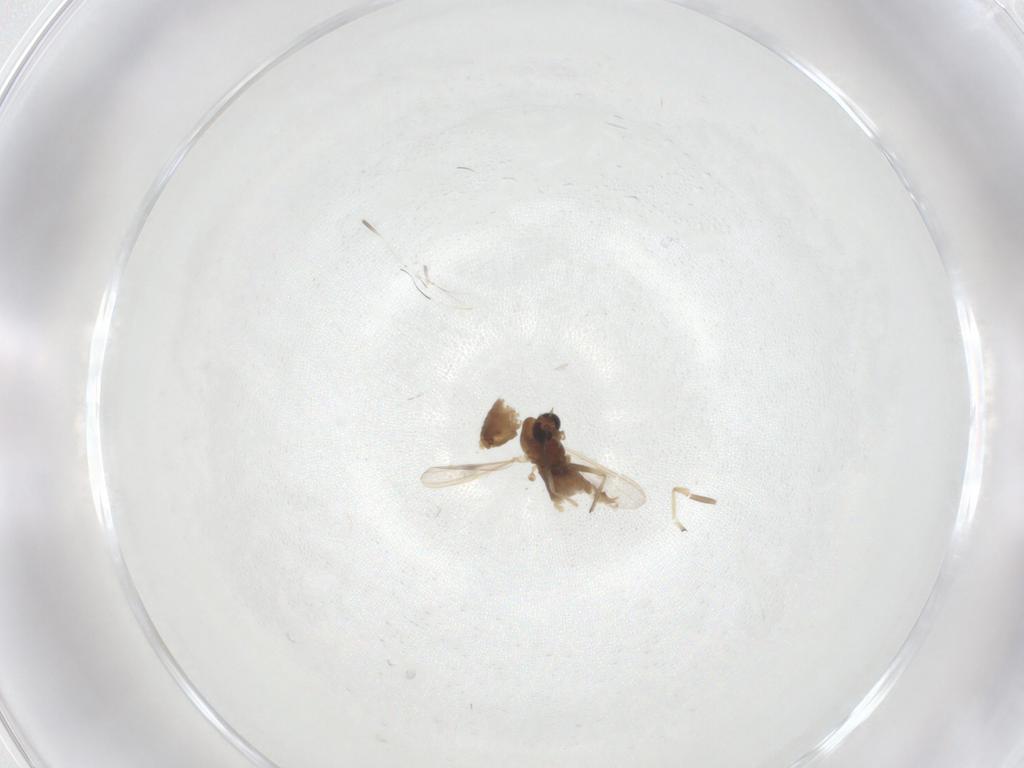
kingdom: Animalia
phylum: Arthropoda
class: Insecta
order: Diptera
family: Chironomidae
